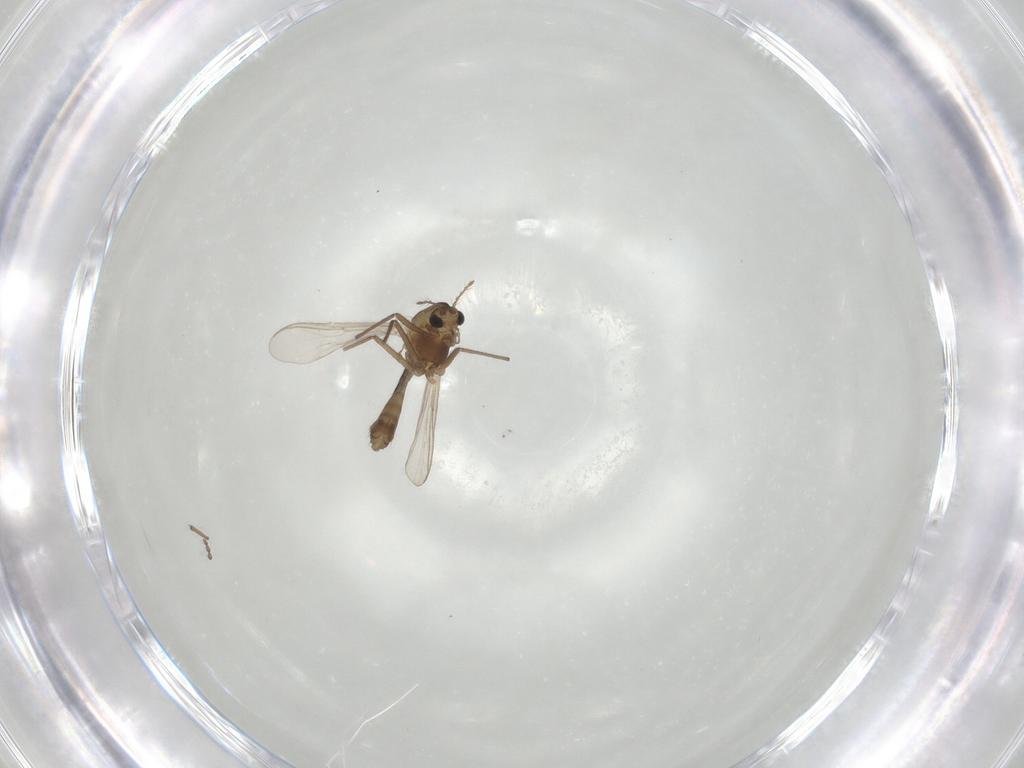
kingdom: Animalia
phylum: Arthropoda
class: Insecta
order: Diptera
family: Chironomidae
